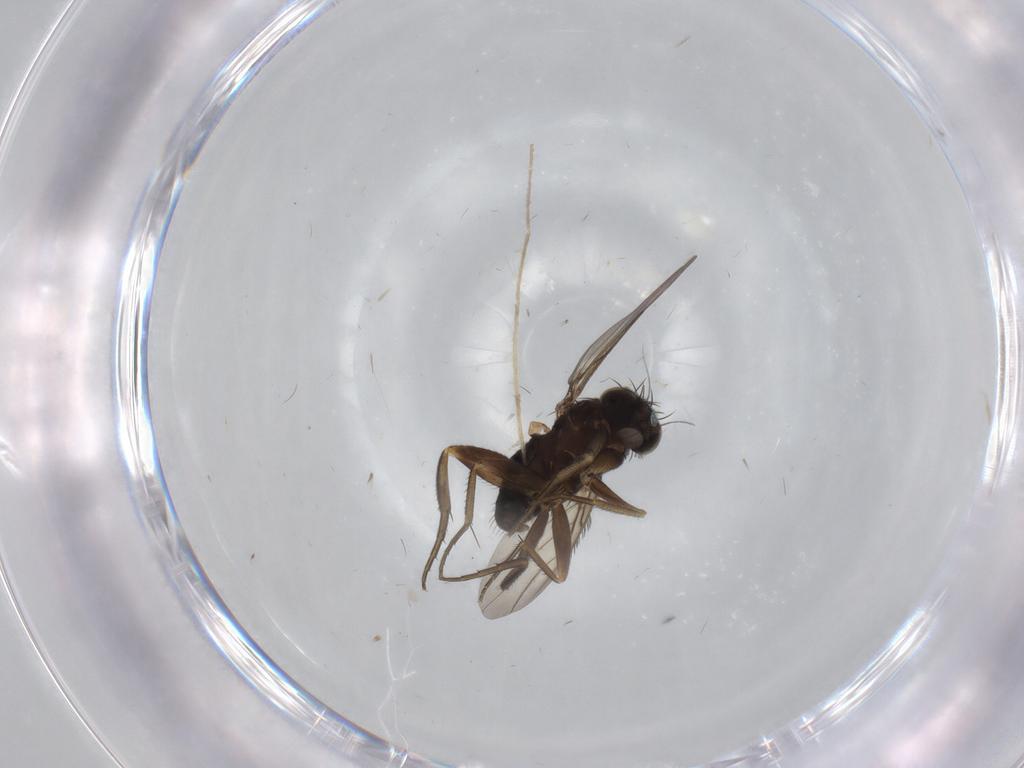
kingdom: Animalia
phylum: Arthropoda
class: Insecta
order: Diptera
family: Phoridae
